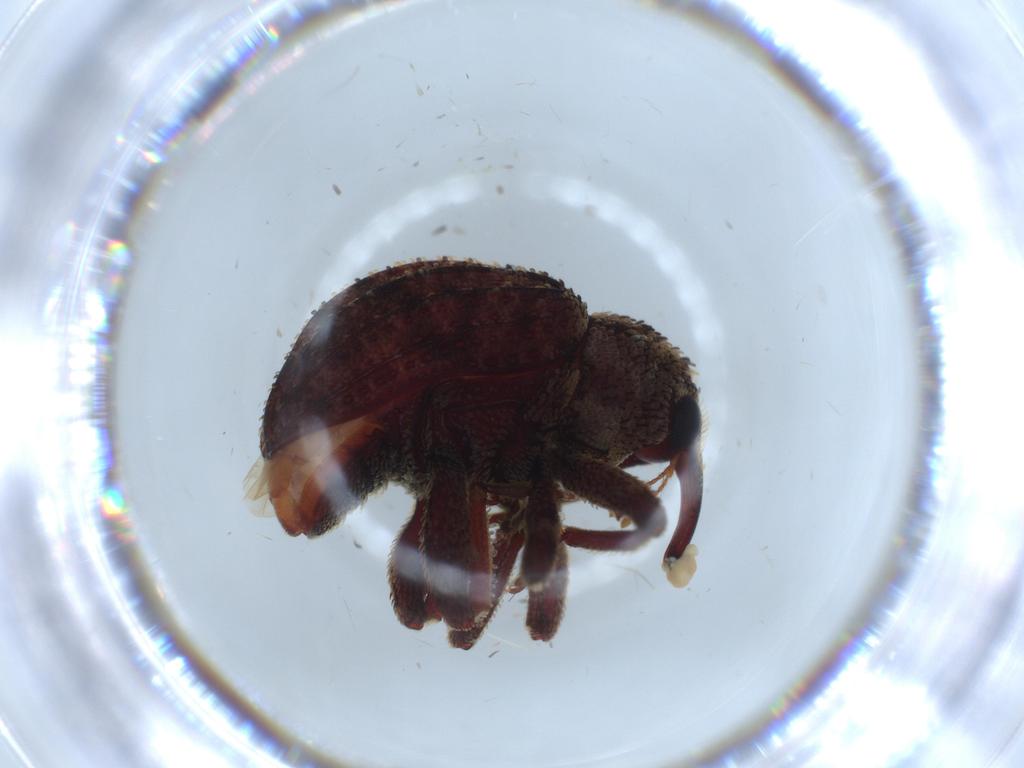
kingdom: Animalia
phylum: Arthropoda
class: Insecta
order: Coleoptera
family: Curculionidae
